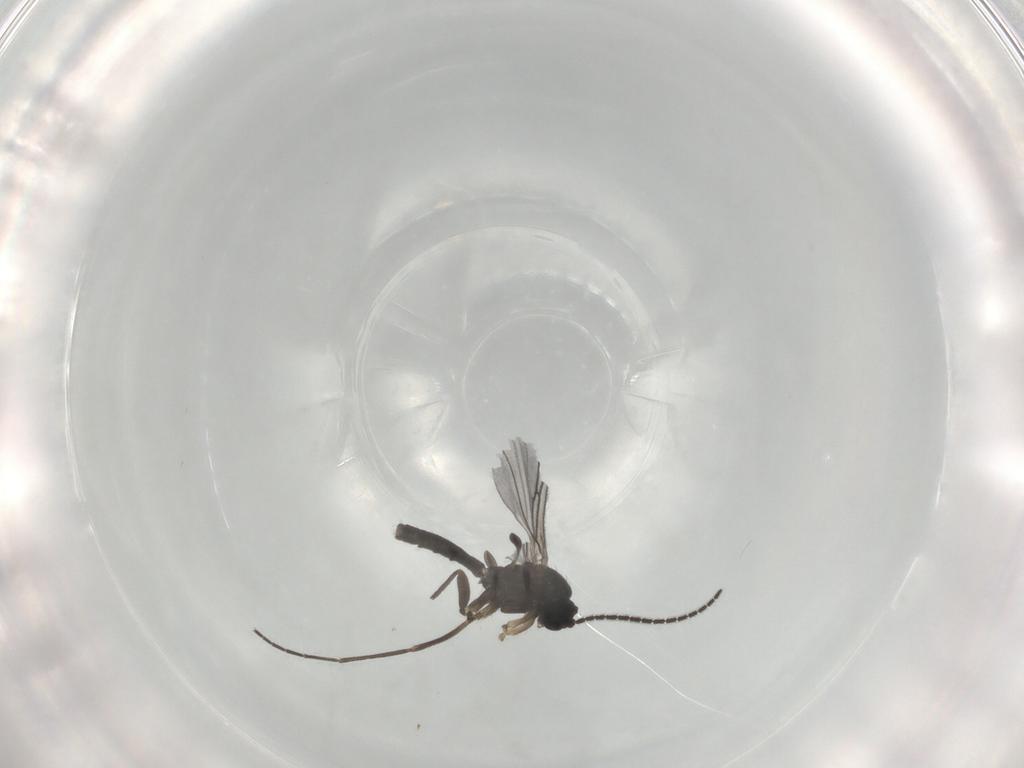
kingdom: Animalia
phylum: Arthropoda
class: Insecta
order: Diptera
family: Sciaridae
